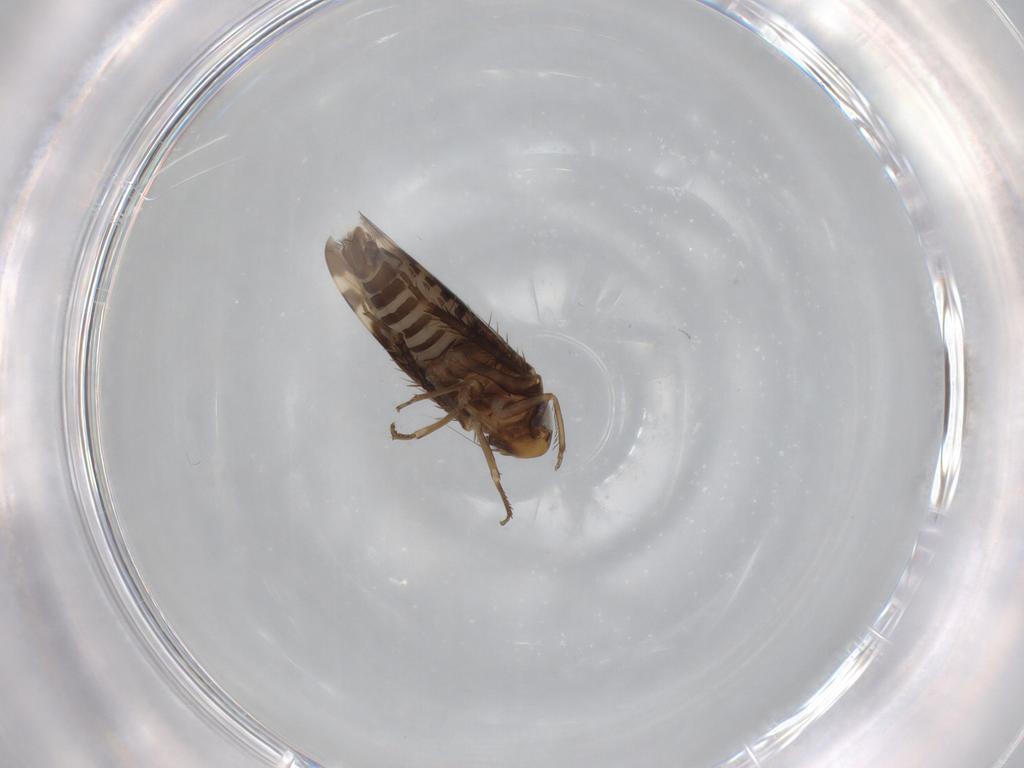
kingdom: Animalia
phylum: Arthropoda
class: Insecta
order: Hemiptera
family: Cicadellidae
